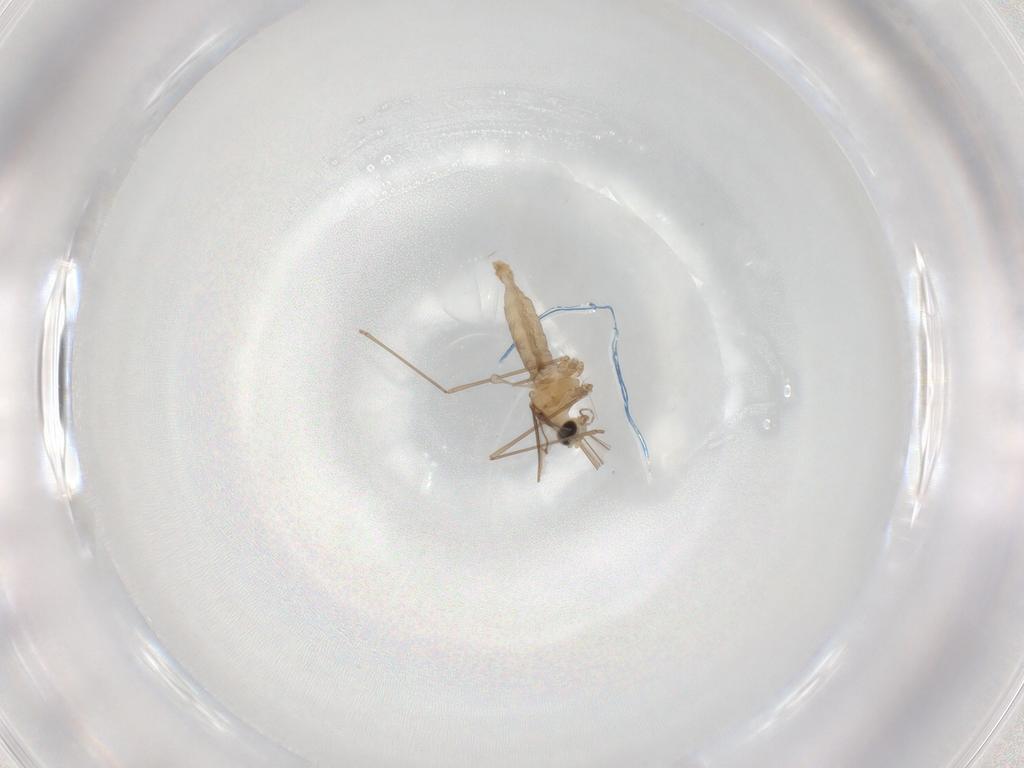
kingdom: Animalia
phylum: Arthropoda
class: Insecta
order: Diptera
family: Cecidomyiidae
